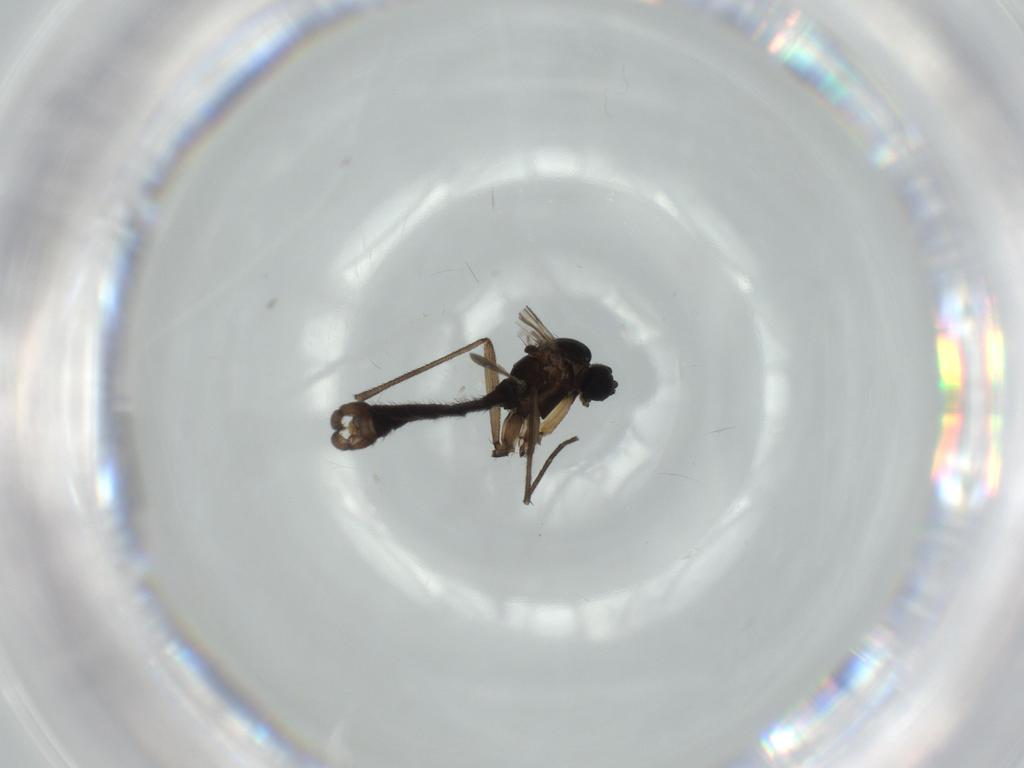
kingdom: Animalia
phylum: Arthropoda
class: Insecta
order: Diptera
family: Sciaridae
